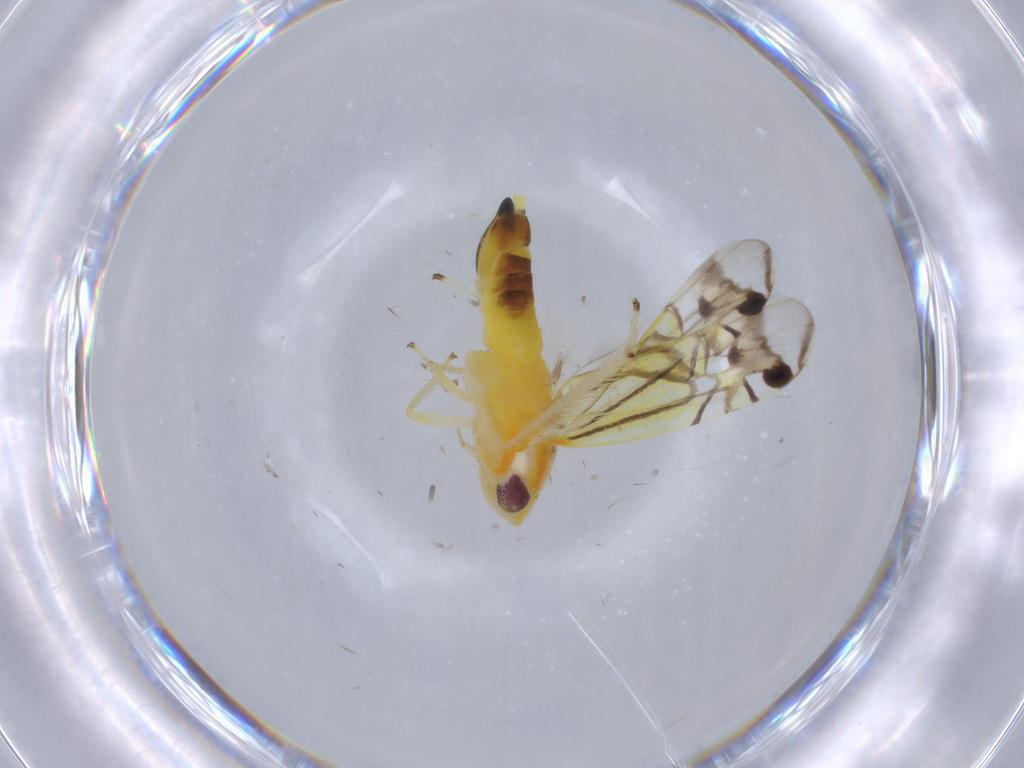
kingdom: Animalia
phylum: Arthropoda
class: Insecta
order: Hemiptera
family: Cicadellidae
